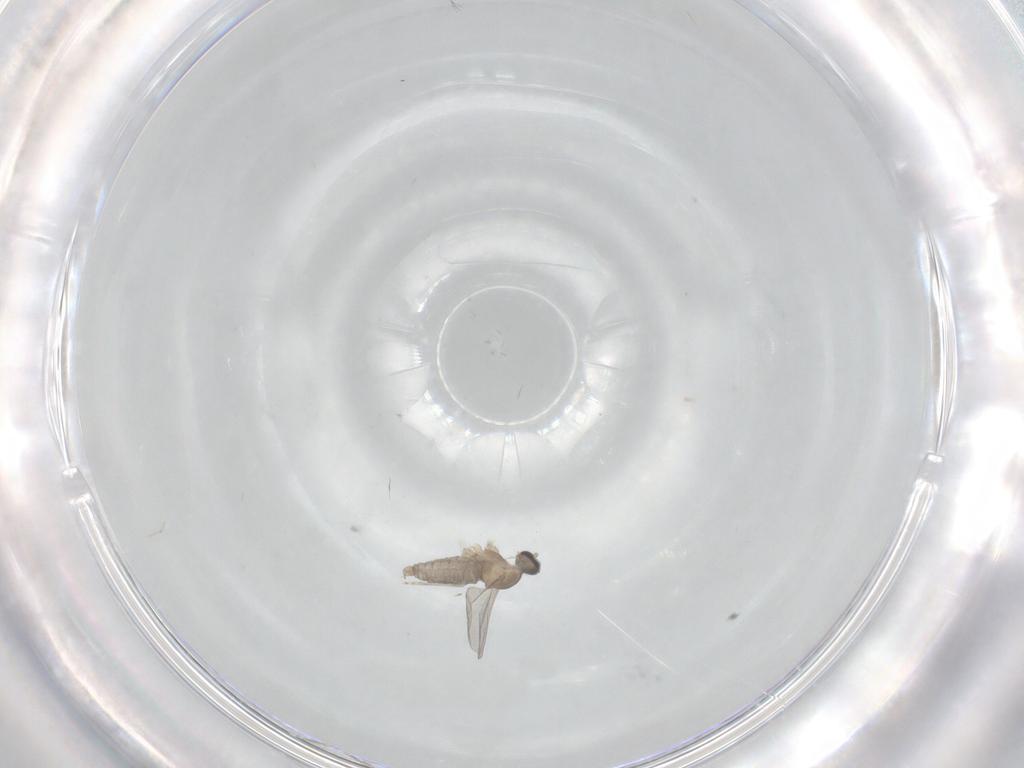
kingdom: Animalia
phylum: Arthropoda
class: Insecta
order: Diptera
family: Cecidomyiidae
